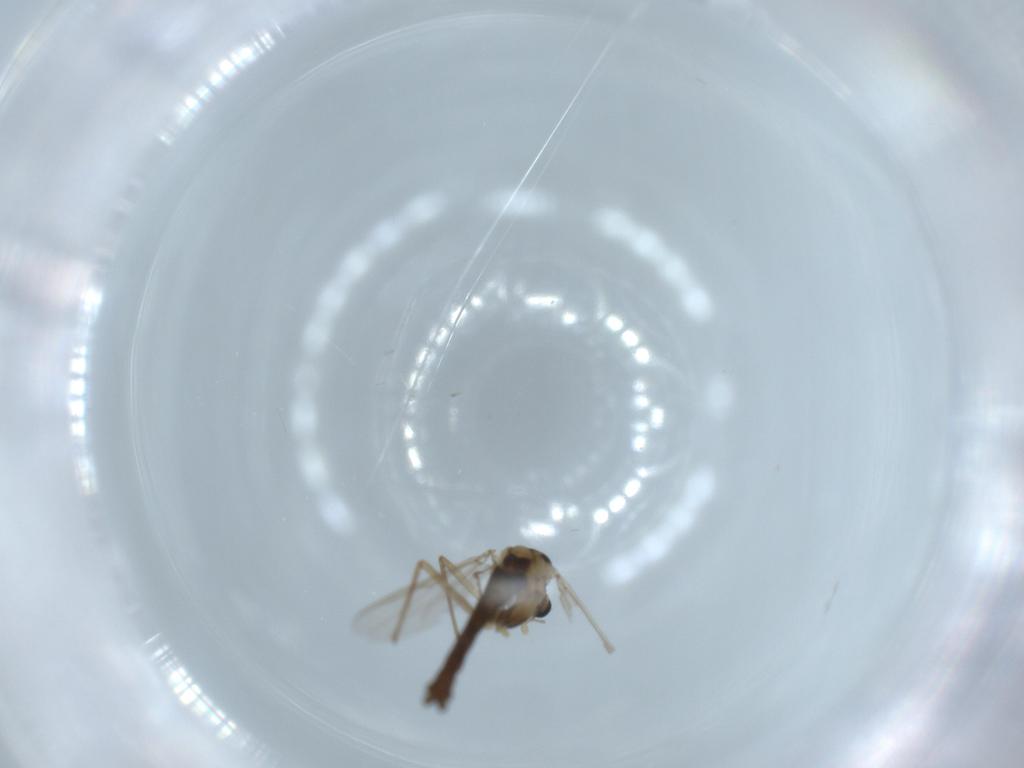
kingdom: Animalia
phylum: Arthropoda
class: Insecta
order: Diptera
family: Chironomidae
